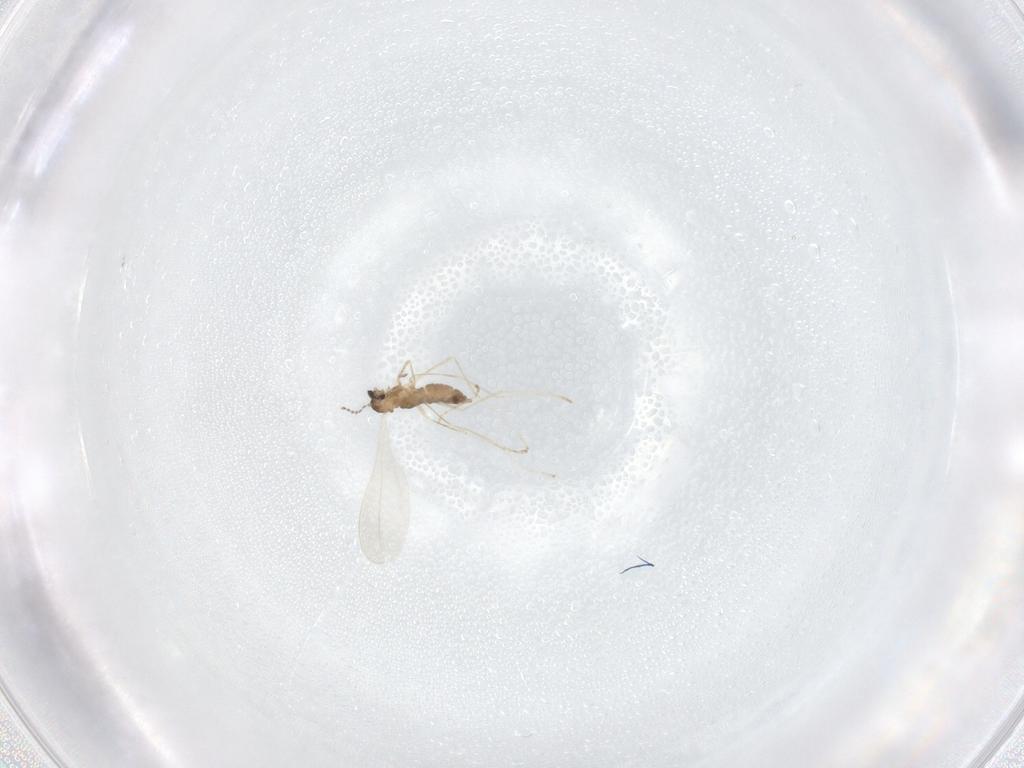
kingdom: Animalia
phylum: Arthropoda
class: Insecta
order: Diptera
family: Cecidomyiidae
